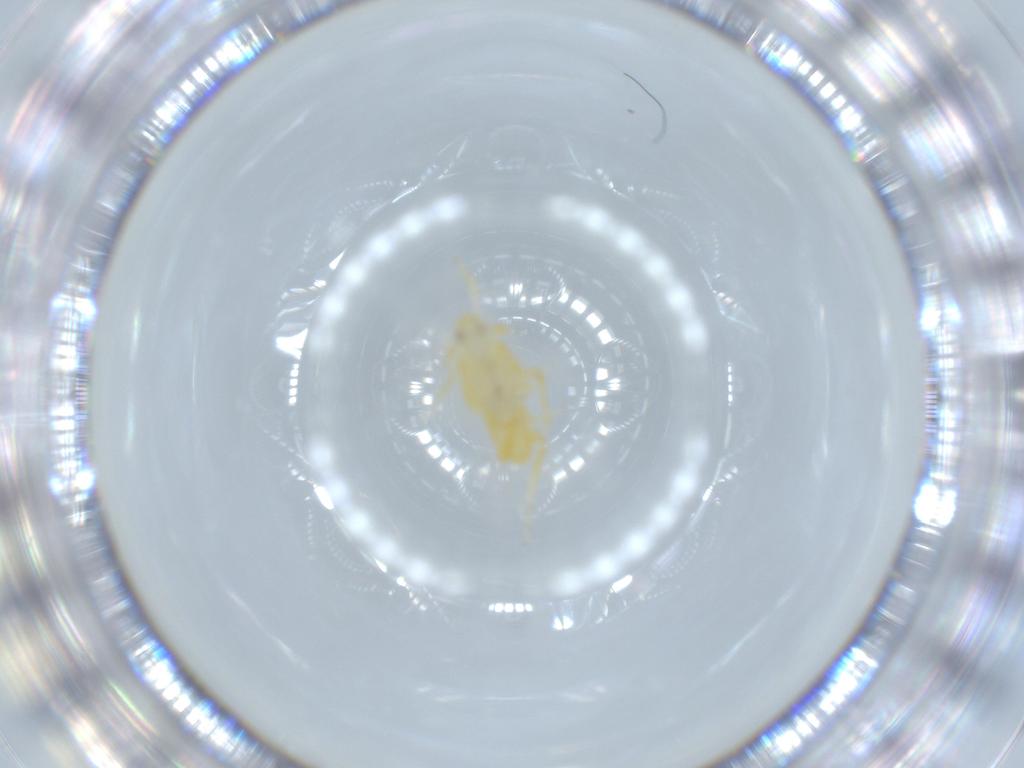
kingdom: Animalia
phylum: Arthropoda
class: Insecta
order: Hemiptera
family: Delphacidae
